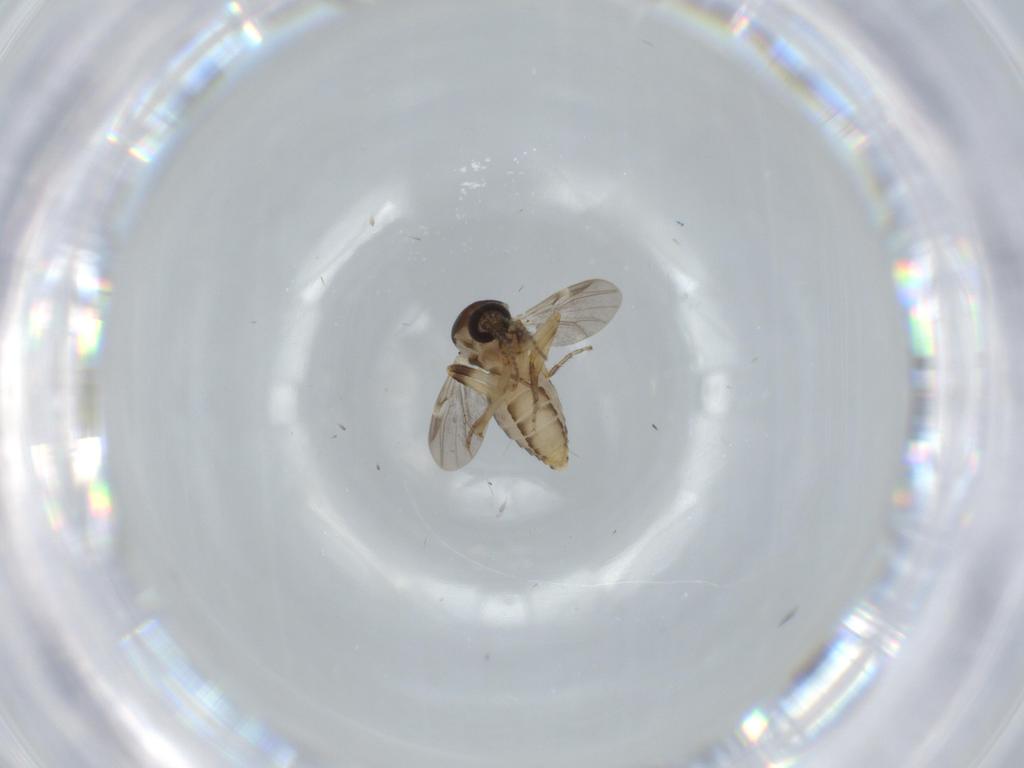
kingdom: Animalia
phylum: Arthropoda
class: Insecta
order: Diptera
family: Ceratopogonidae
